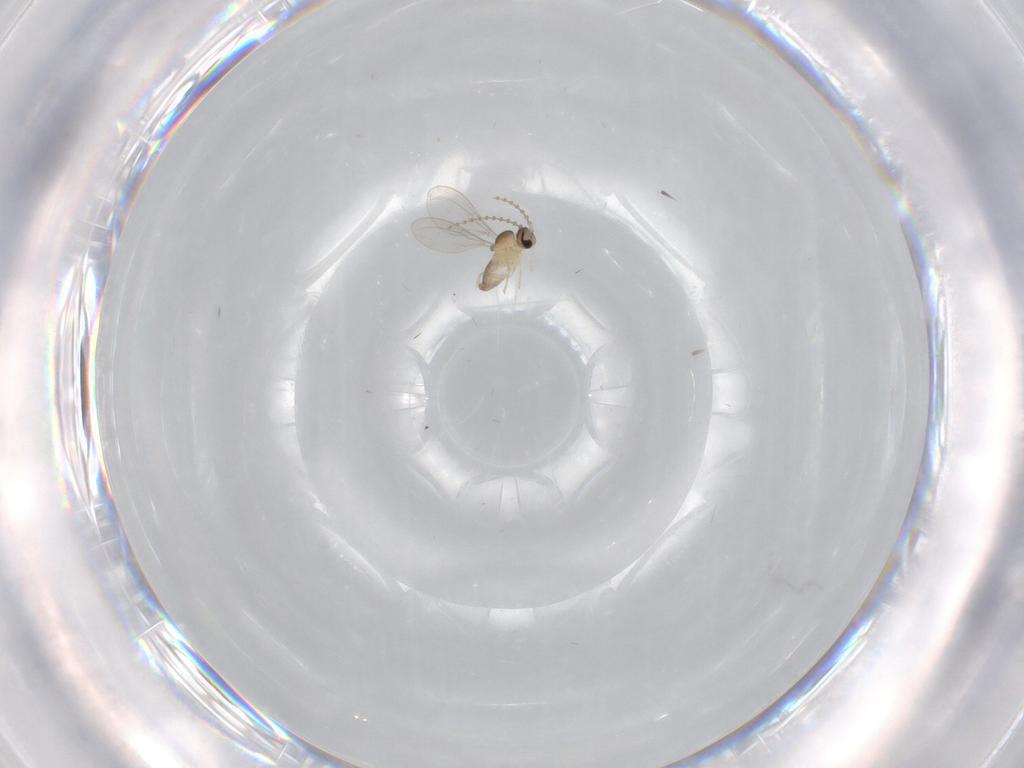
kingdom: Animalia
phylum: Arthropoda
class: Insecta
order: Diptera
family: Cecidomyiidae
